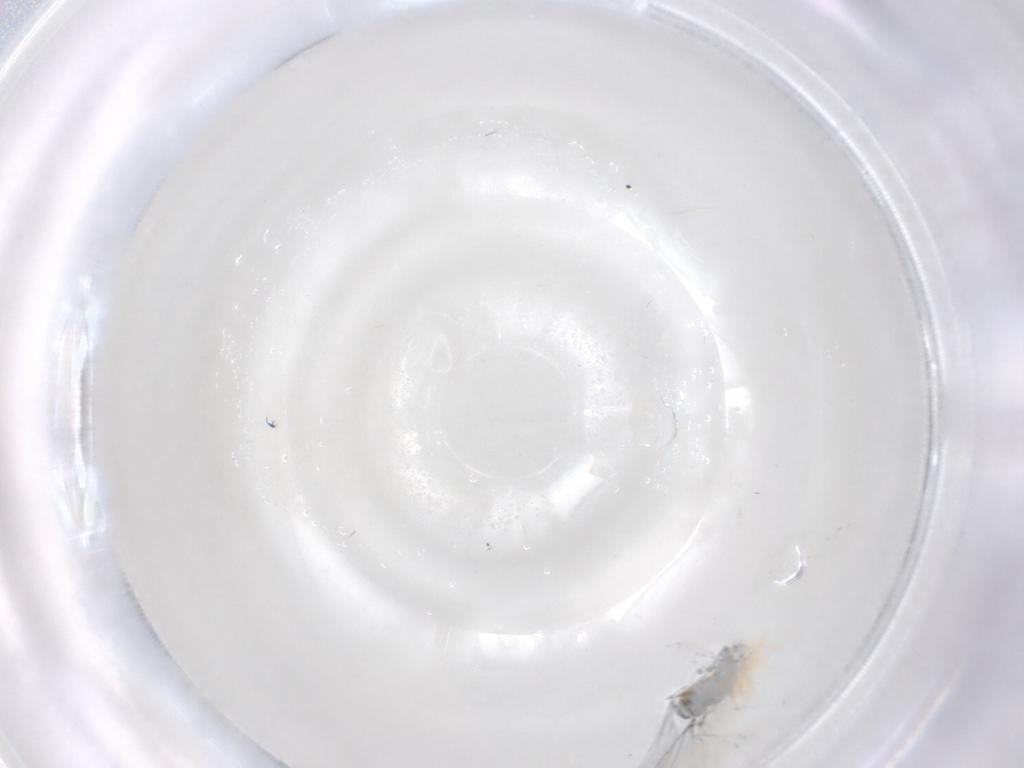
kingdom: Animalia
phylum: Arthropoda
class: Insecta
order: Diptera
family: Cecidomyiidae
